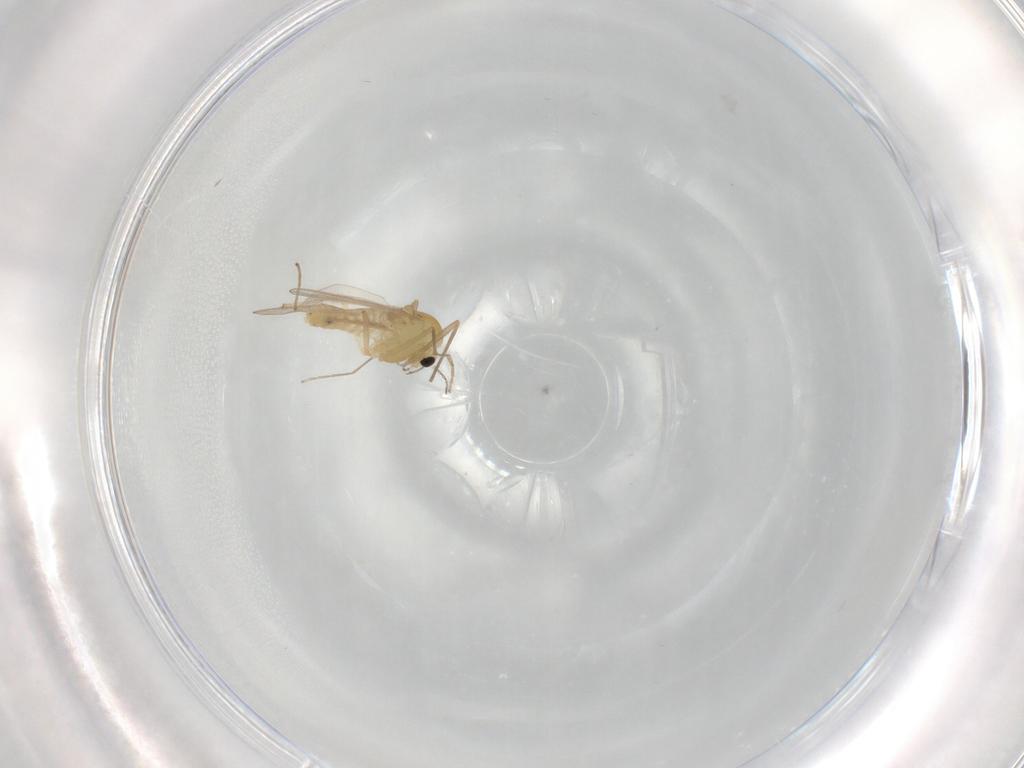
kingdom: Animalia
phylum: Arthropoda
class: Insecta
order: Diptera
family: Chironomidae
